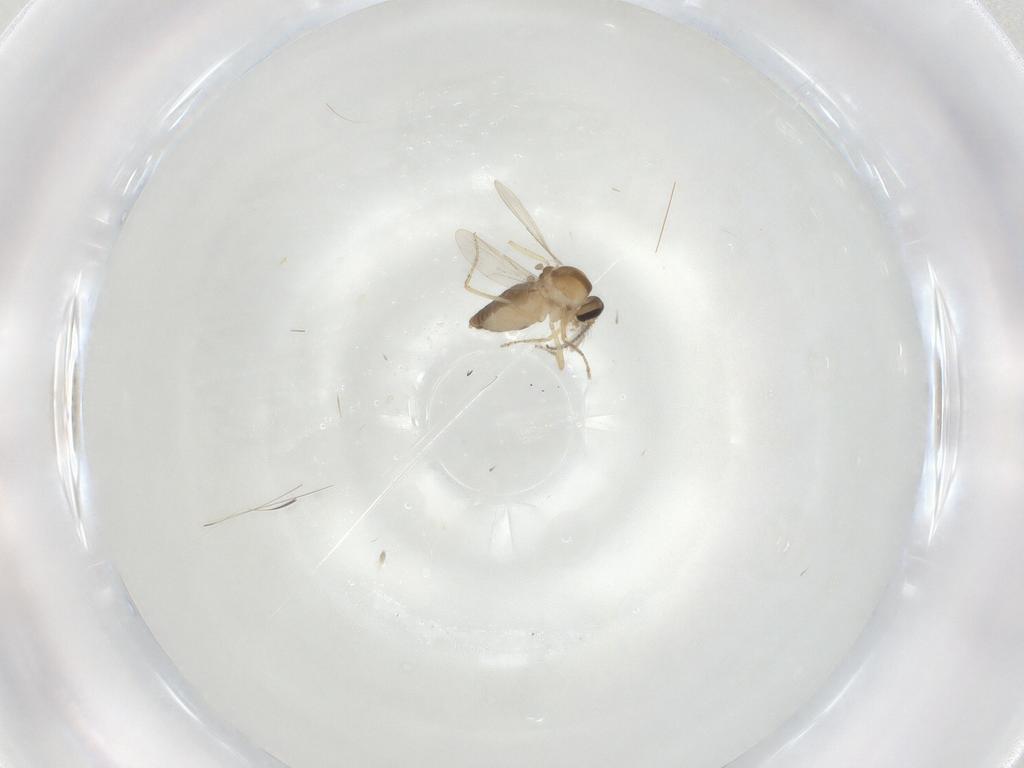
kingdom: Animalia
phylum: Arthropoda
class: Insecta
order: Diptera
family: Ceratopogonidae
